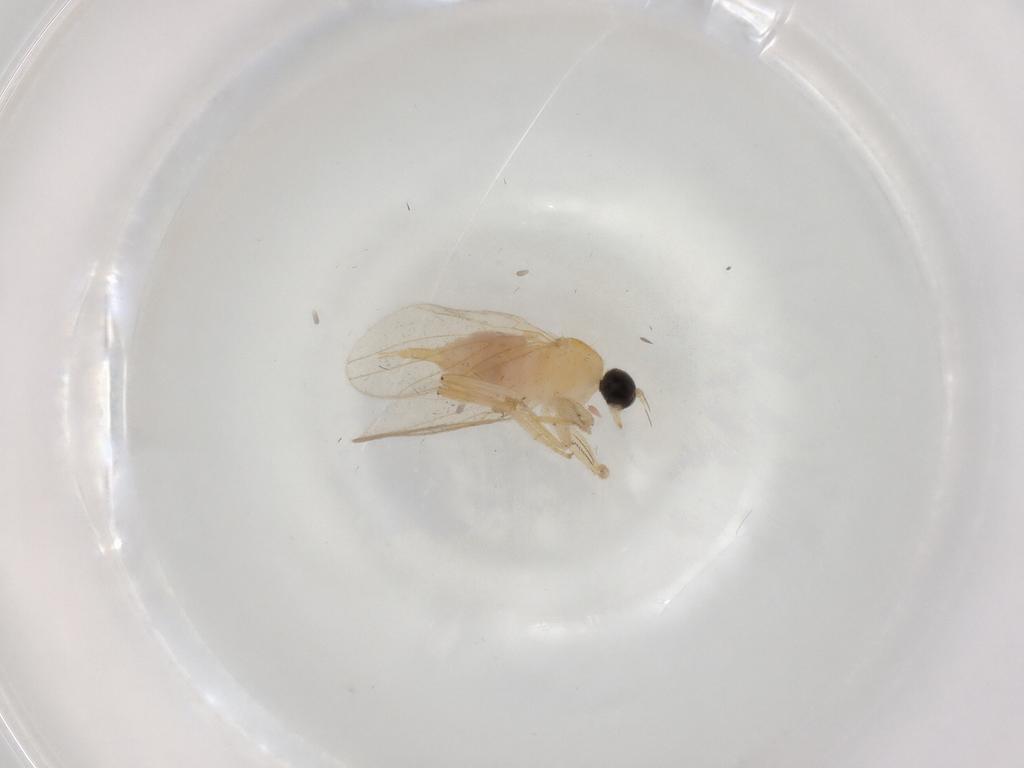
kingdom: Animalia
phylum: Arthropoda
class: Insecta
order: Diptera
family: Hybotidae
